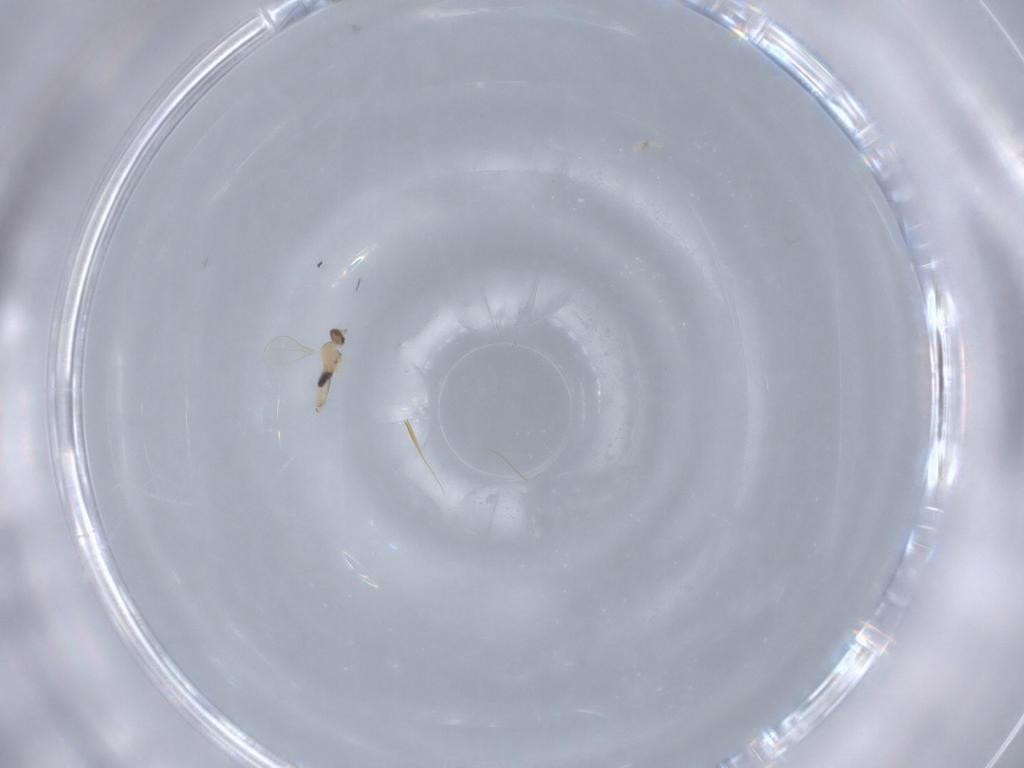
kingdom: Animalia
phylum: Arthropoda
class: Insecta
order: Diptera
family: Cecidomyiidae
